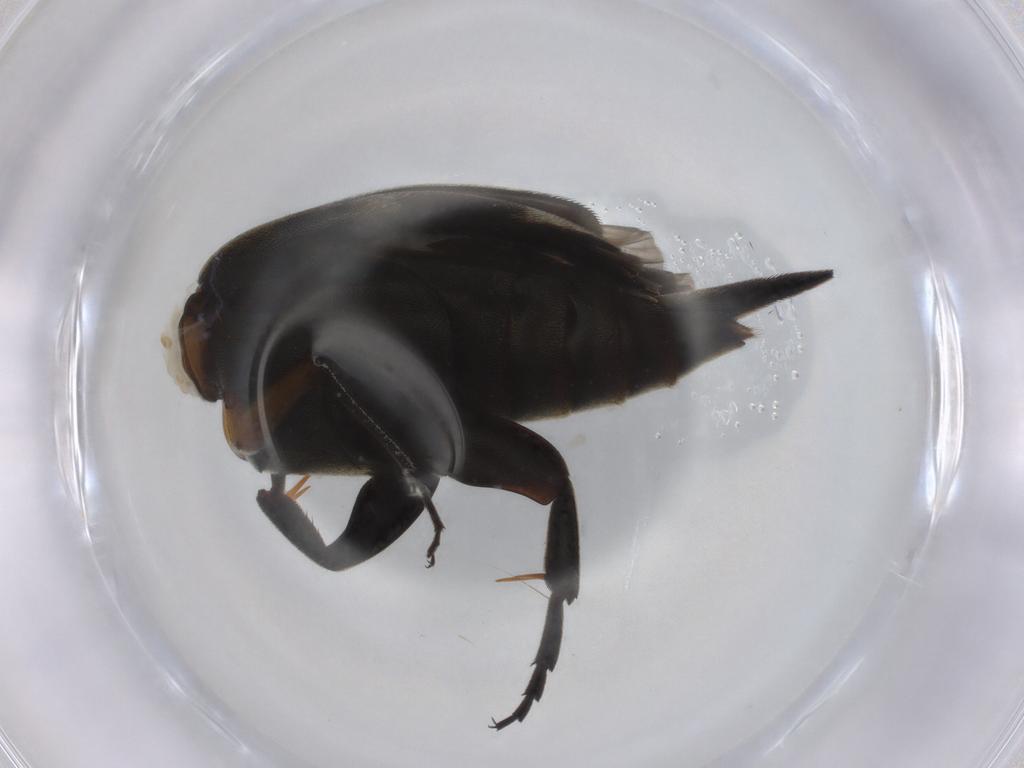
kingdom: Animalia
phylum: Arthropoda
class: Insecta
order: Coleoptera
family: Mordellidae
